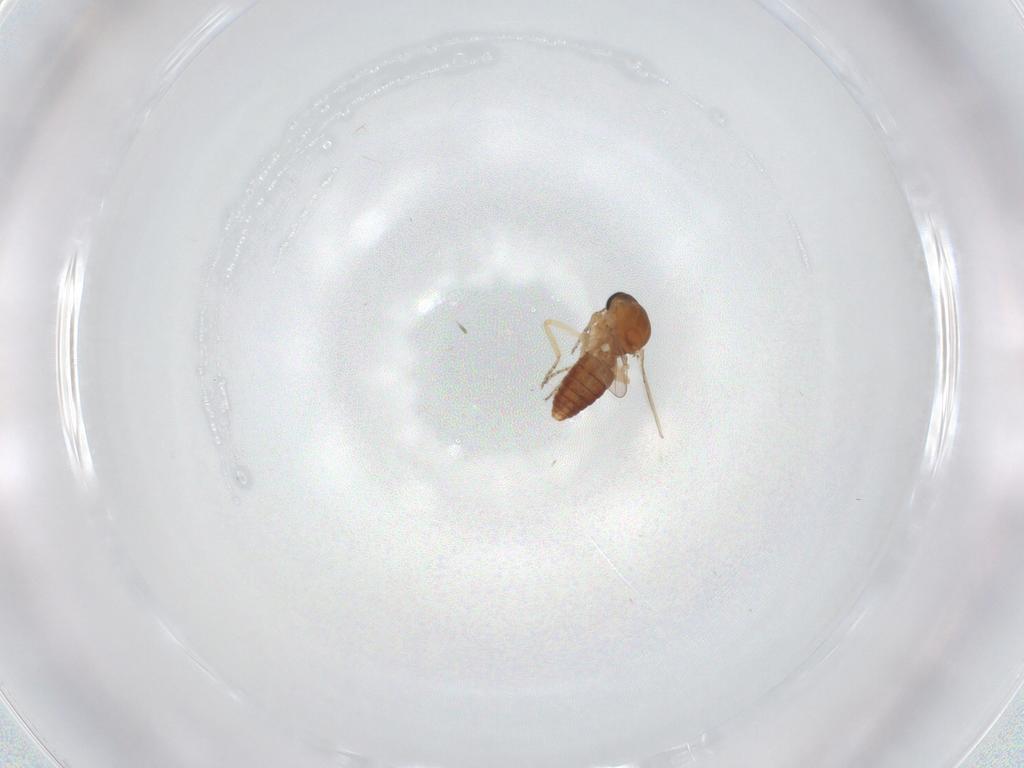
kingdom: Animalia
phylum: Arthropoda
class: Insecta
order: Diptera
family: Ceratopogonidae
